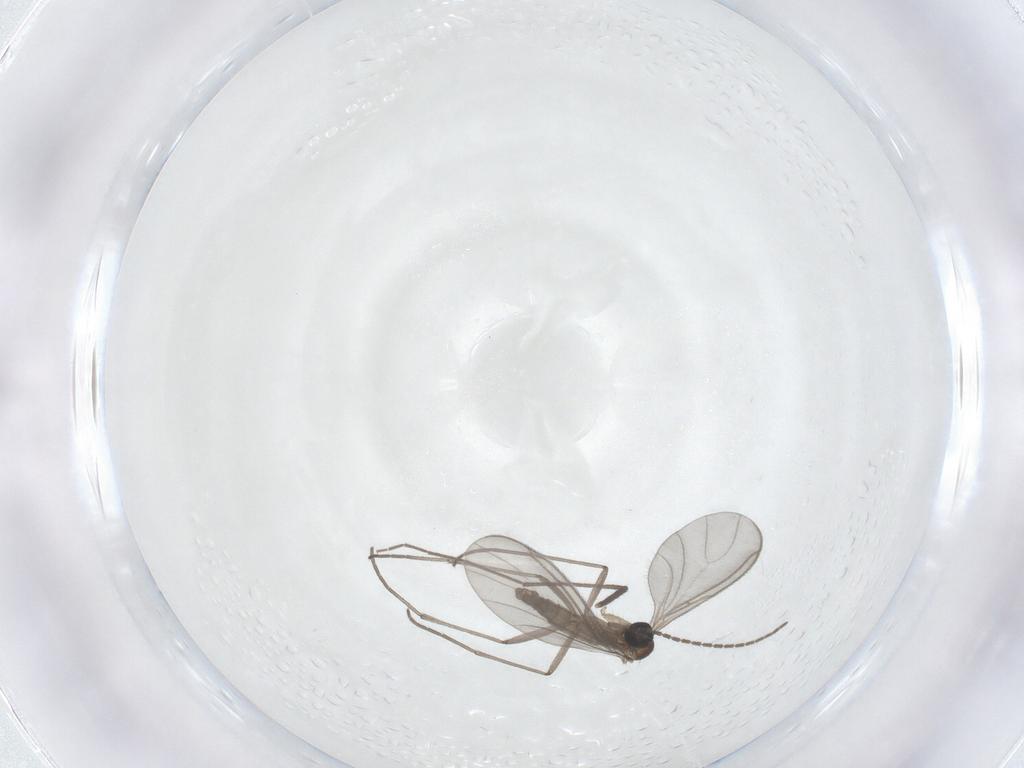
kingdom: Animalia
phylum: Arthropoda
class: Insecta
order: Diptera
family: Sciaridae
